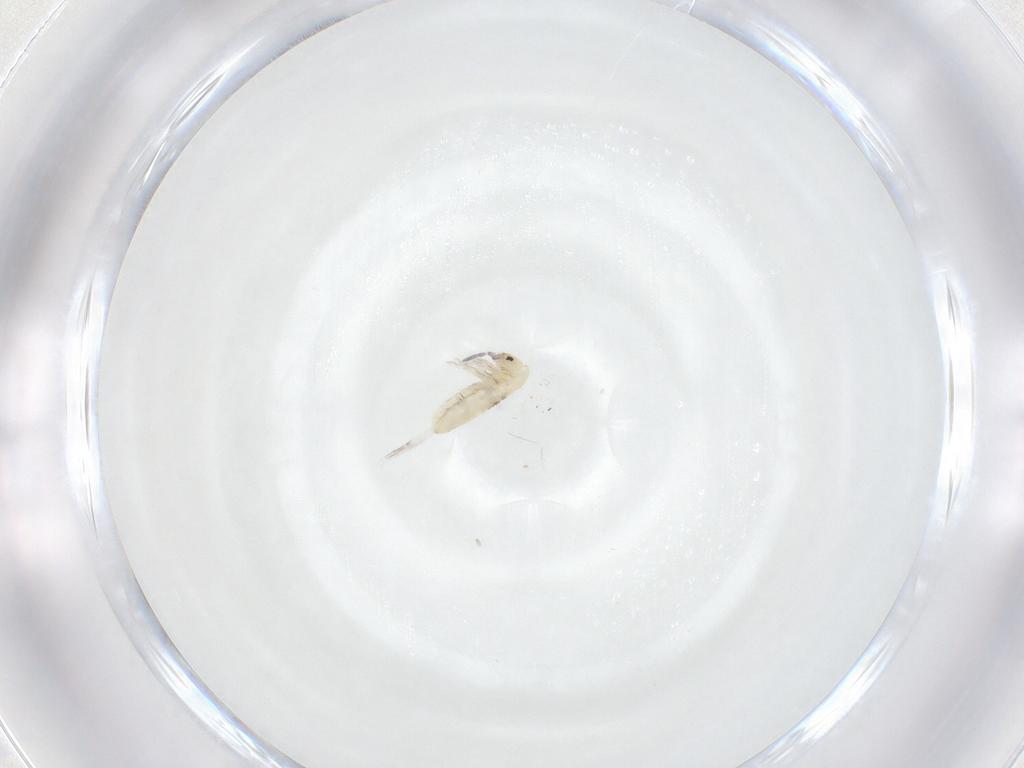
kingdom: Animalia
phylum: Arthropoda
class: Collembola
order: Entomobryomorpha
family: Entomobryidae
